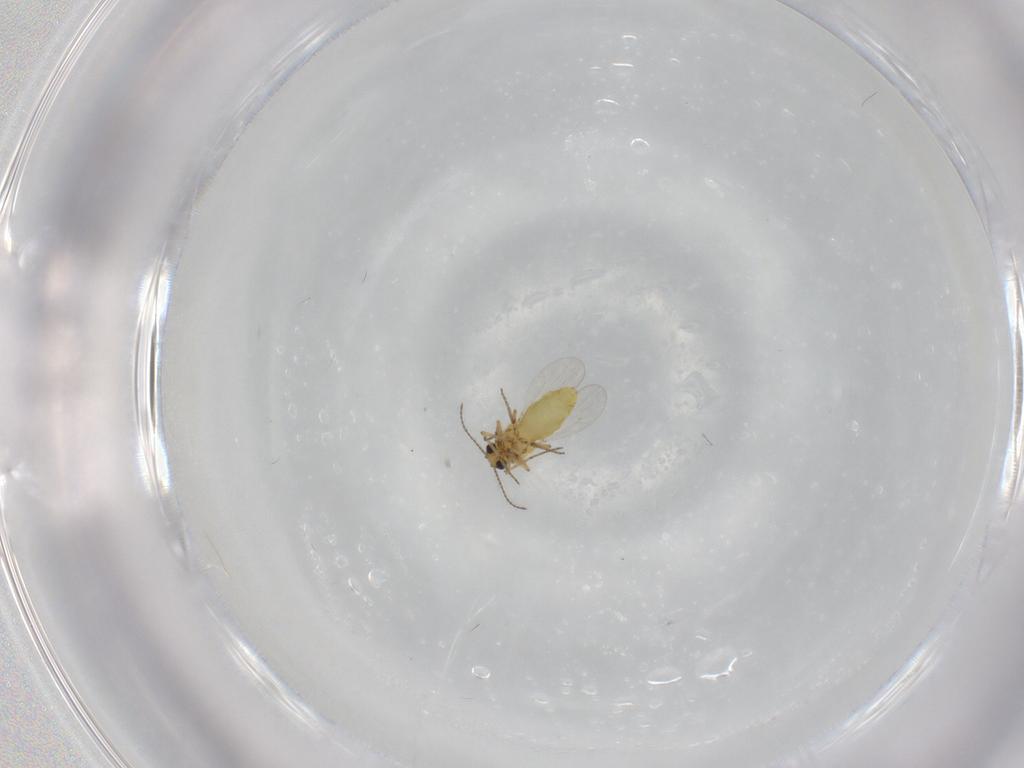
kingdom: Animalia
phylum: Arthropoda
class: Insecta
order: Diptera
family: Ceratopogonidae
